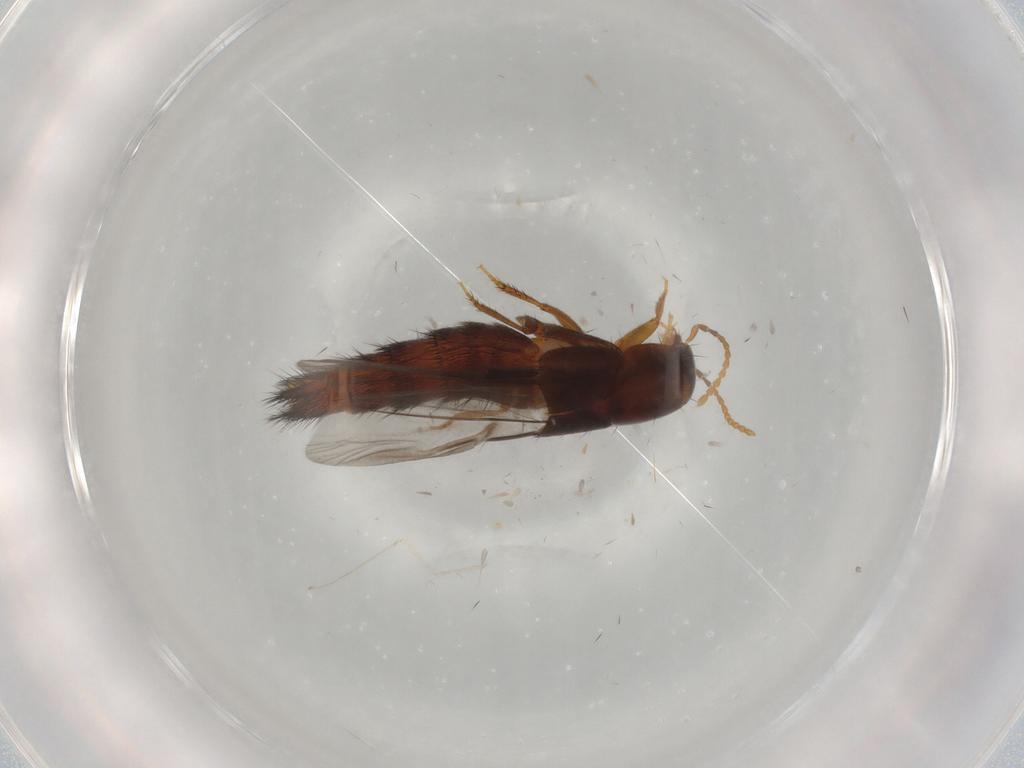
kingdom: Animalia
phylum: Arthropoda
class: Insecta
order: Coleoptera
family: Staphylinidae
